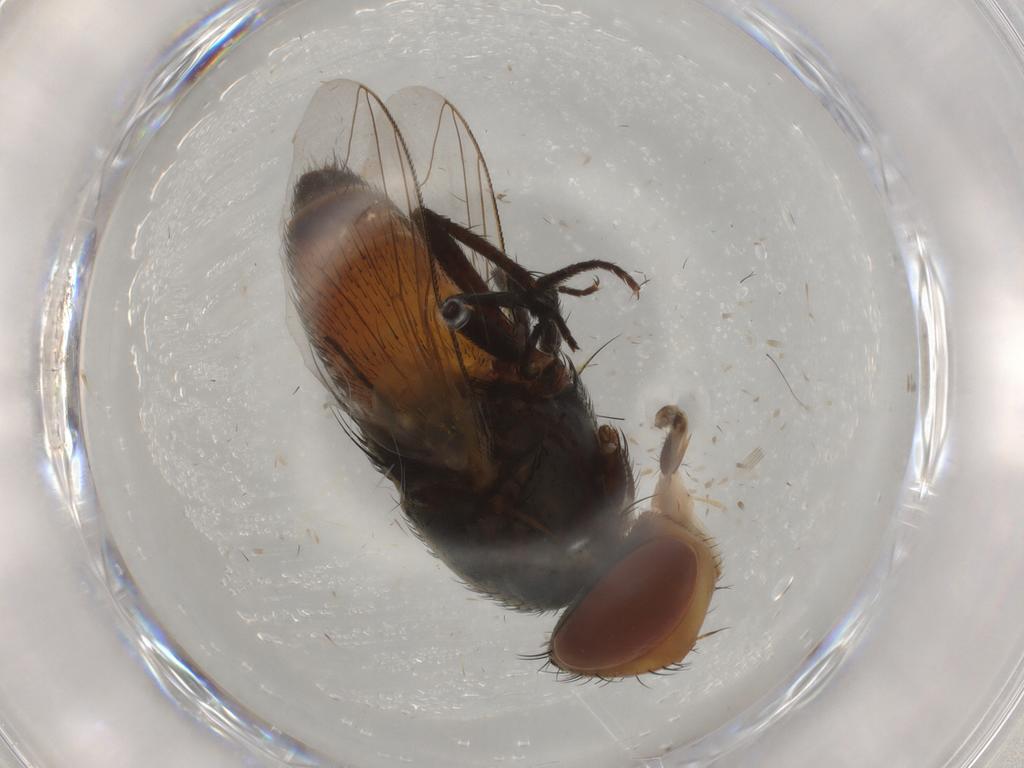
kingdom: Animalia
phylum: Arthropoda
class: Insecta
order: Diptera
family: Sarcophagidae
